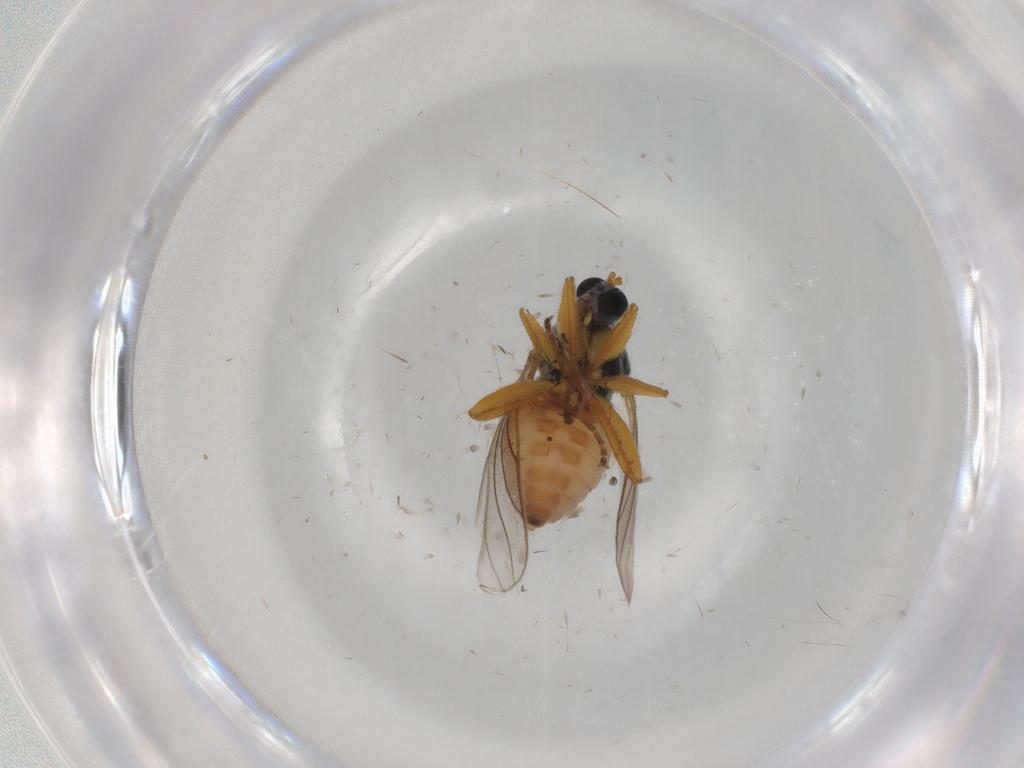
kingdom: Animalia
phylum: Arthropoda
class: Insecta
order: Diptera
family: Hybotidae
